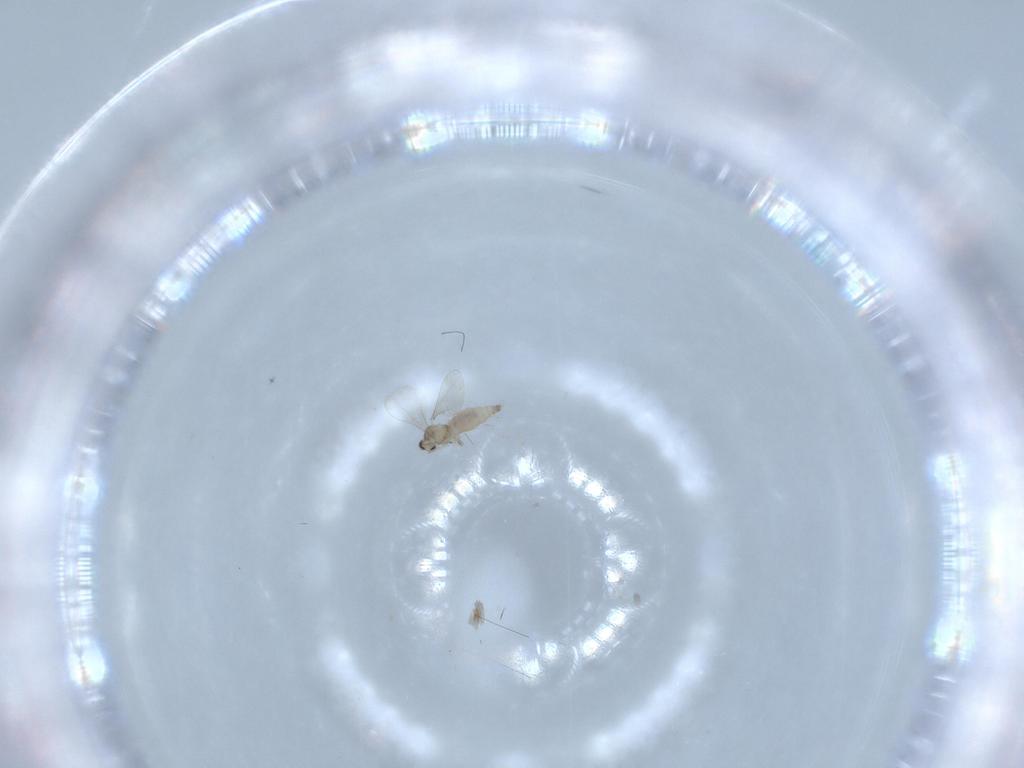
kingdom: Animalia
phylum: Arthropoda
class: Insecta
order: Diptera
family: Cecidomyiidae
